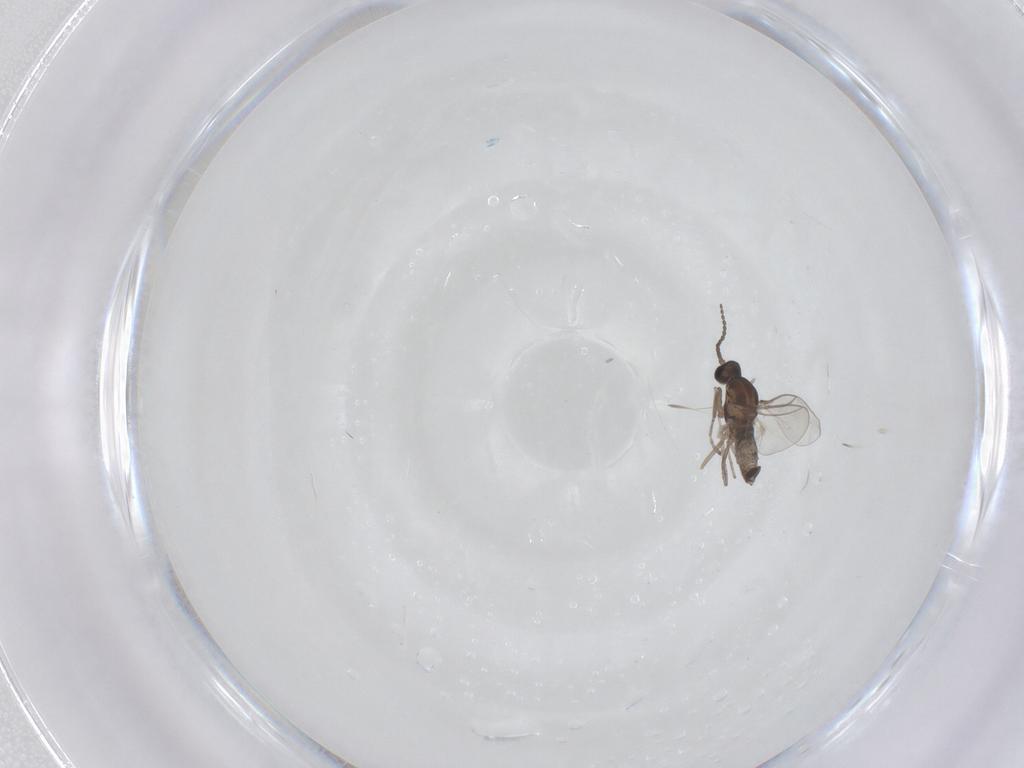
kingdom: Animalia
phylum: Arthropoda
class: Insecta
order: Diptera
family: Cecidomyiidae
